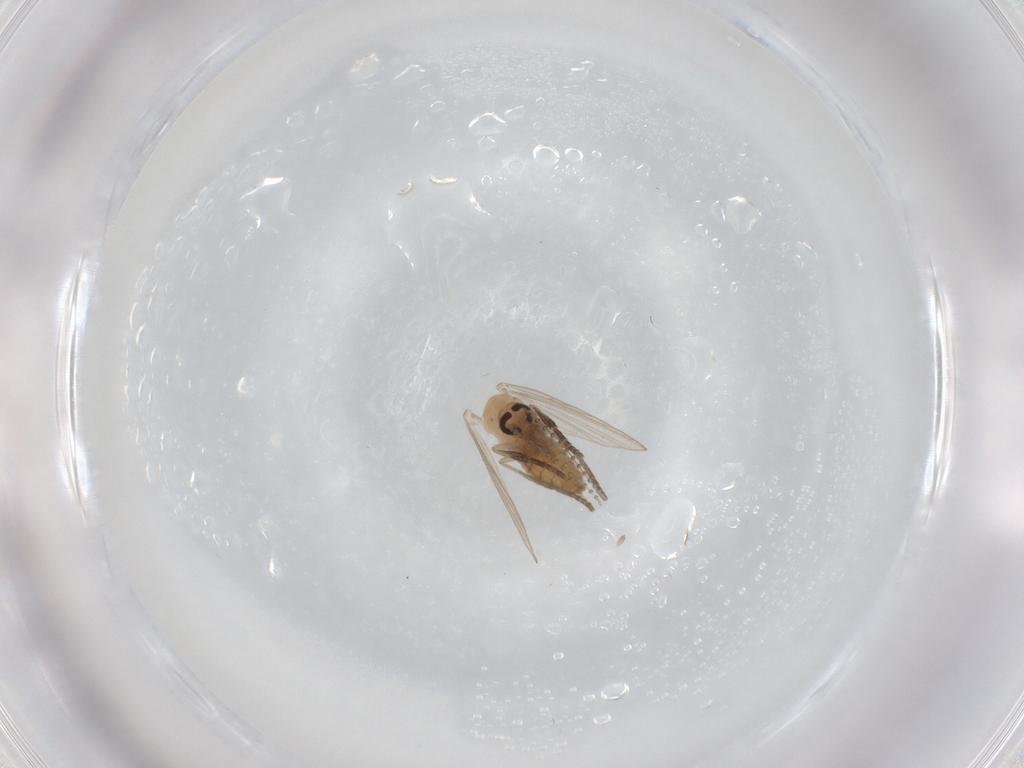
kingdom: Animalia
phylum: Arthropoda
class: Insecta
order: Diptera
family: Psychodidae
